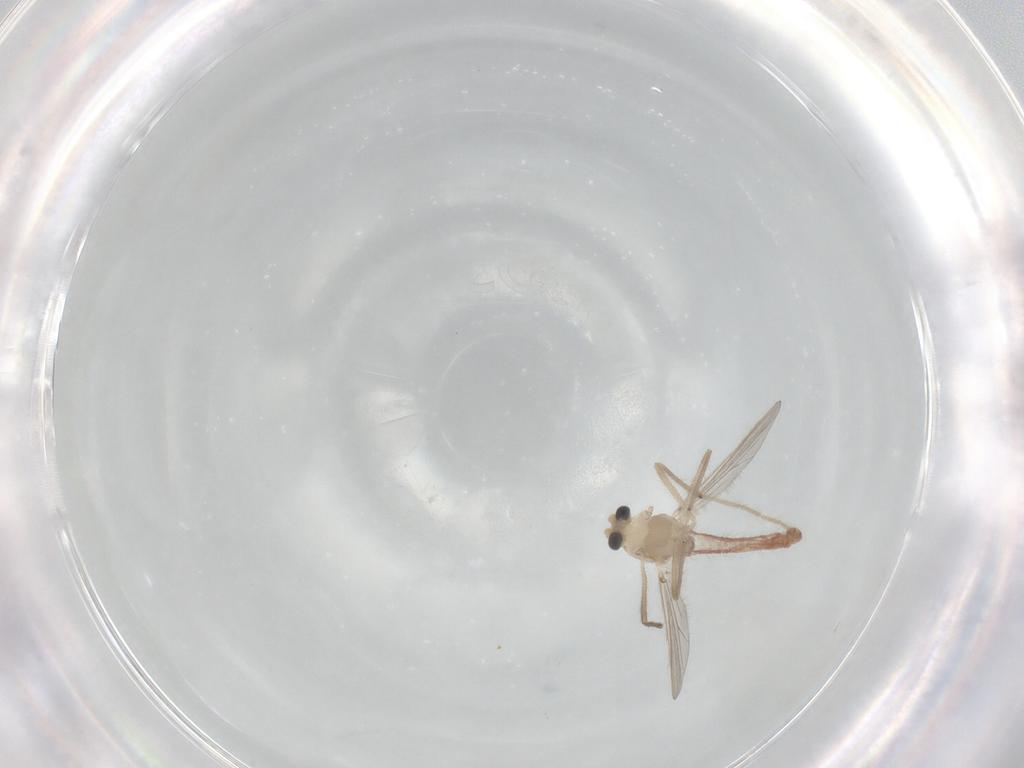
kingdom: Animalia
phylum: Arthropoda
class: Insecta
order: Diptera
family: Chironomidae
